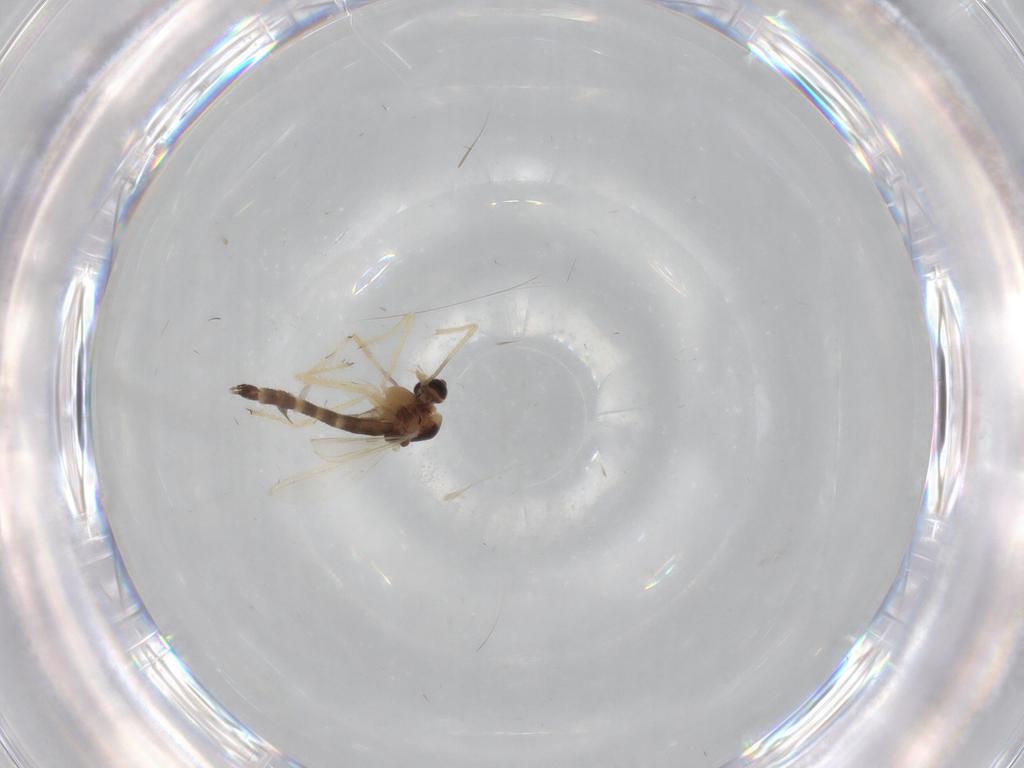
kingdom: Animalia
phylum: Arthropoda
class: Insecta
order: Diptera
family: Chironomidae
